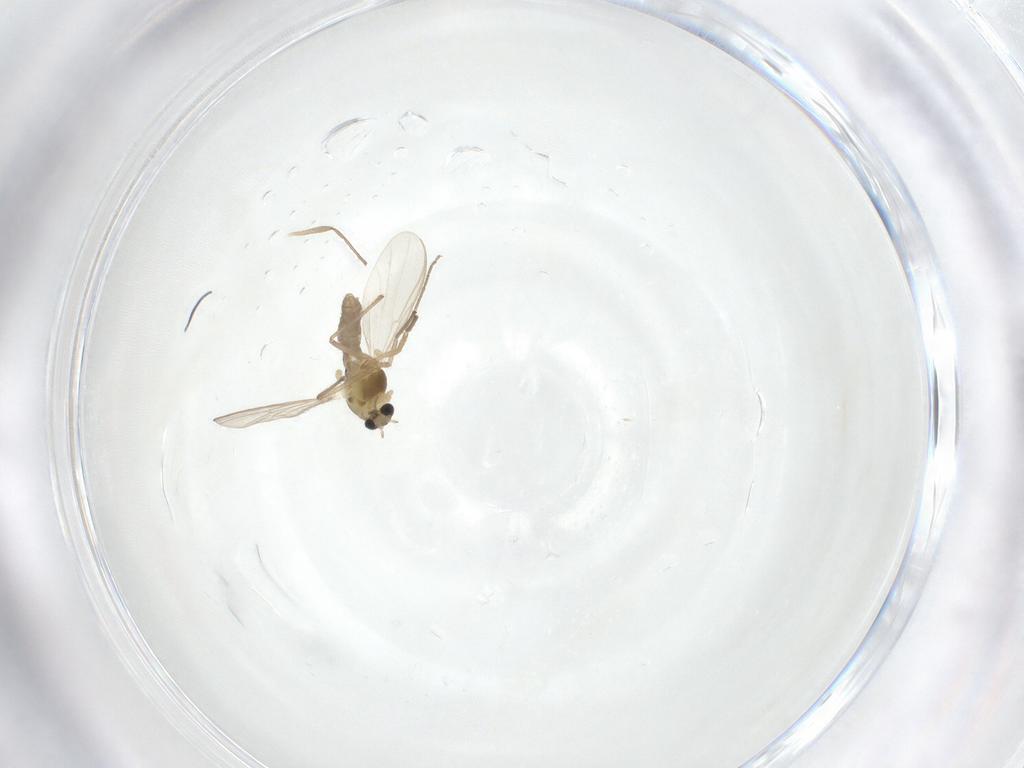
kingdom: Animalia
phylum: Arthropoda
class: Insecta
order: Diptera
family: Chironomidae
